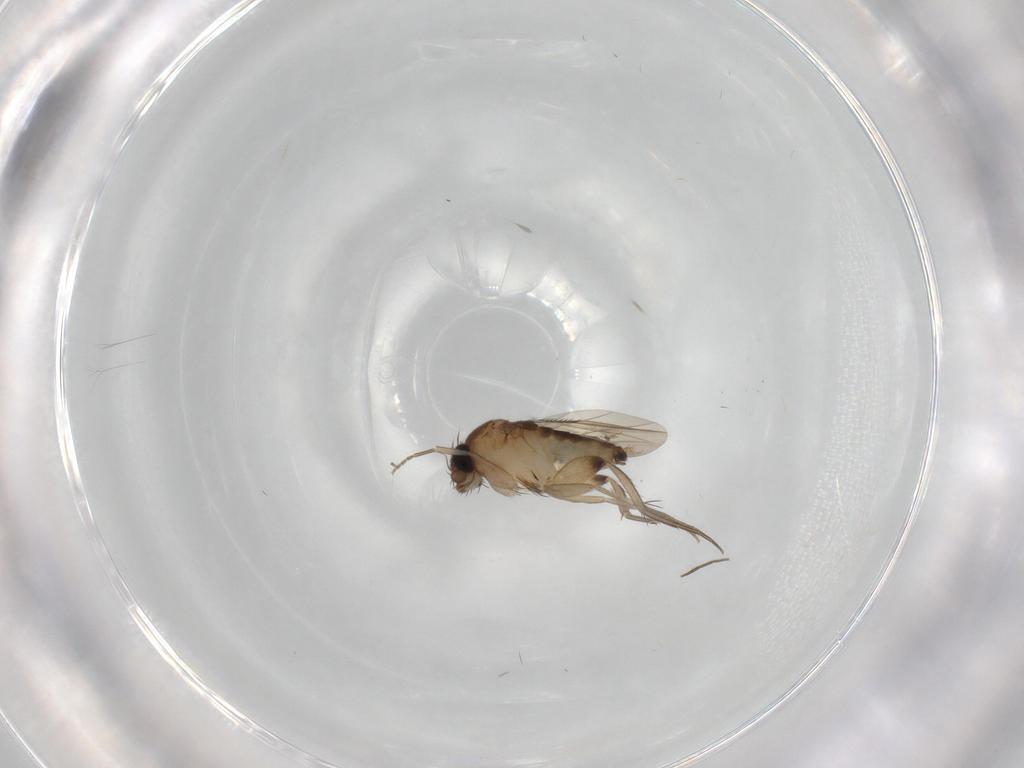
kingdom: Animalia
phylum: Arthropoda
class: Insecta
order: Diptera
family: Phoridae
